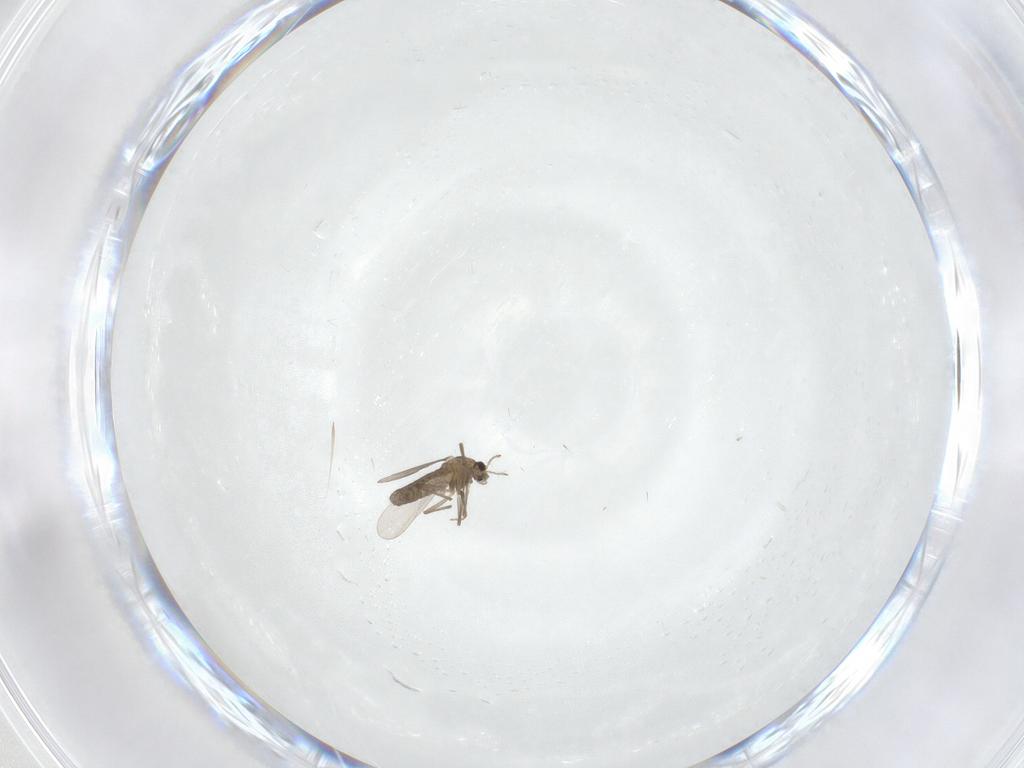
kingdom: Animalia
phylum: Arthropoda
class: Insecta
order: Diptera
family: Chironomidae
